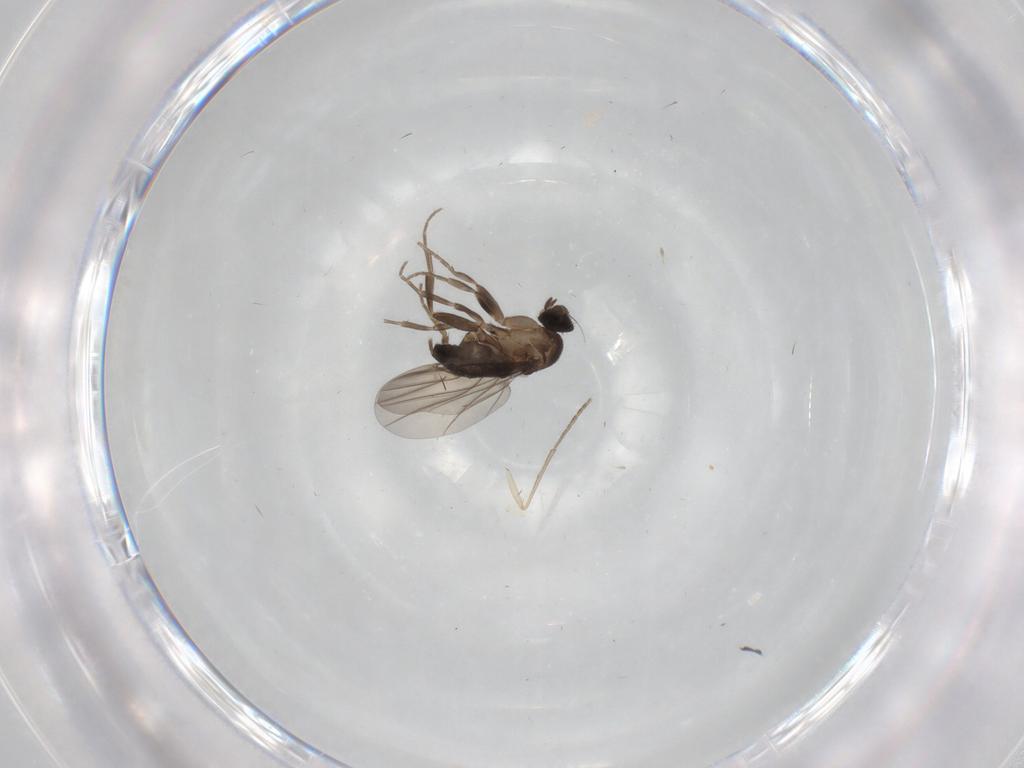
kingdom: Animalia
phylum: Arthropoda
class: Insecta
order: Diptera
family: Phoridae
